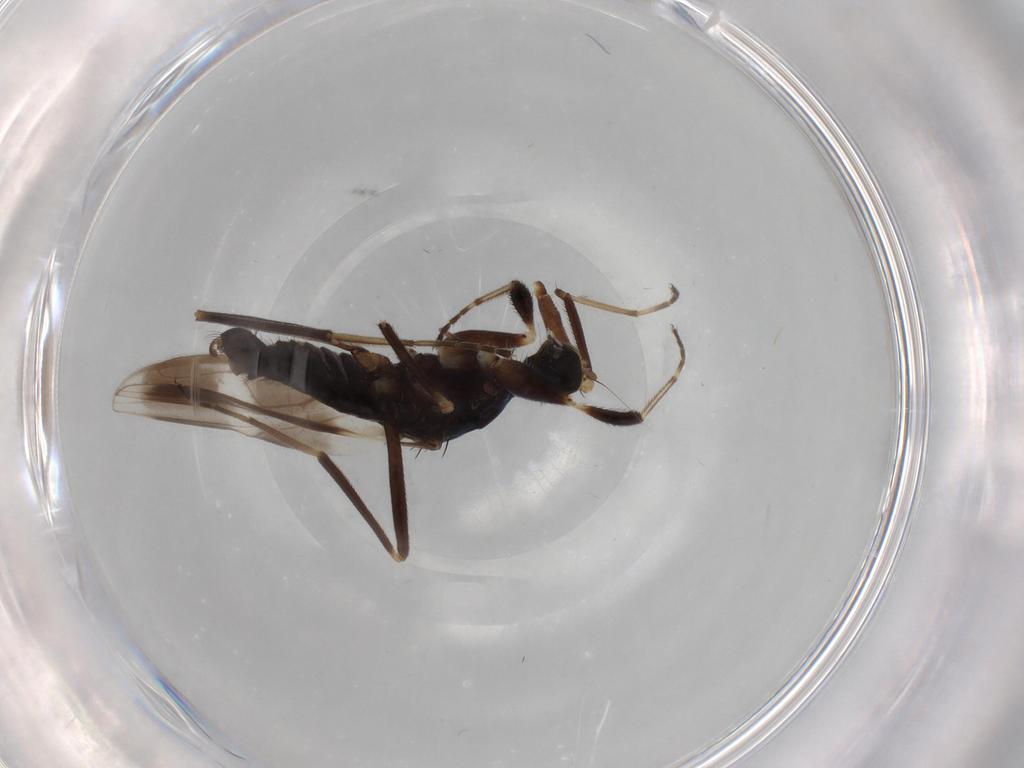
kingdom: Animalia
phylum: Arthropoda
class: Insecta
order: Diptera
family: Hybotidae
